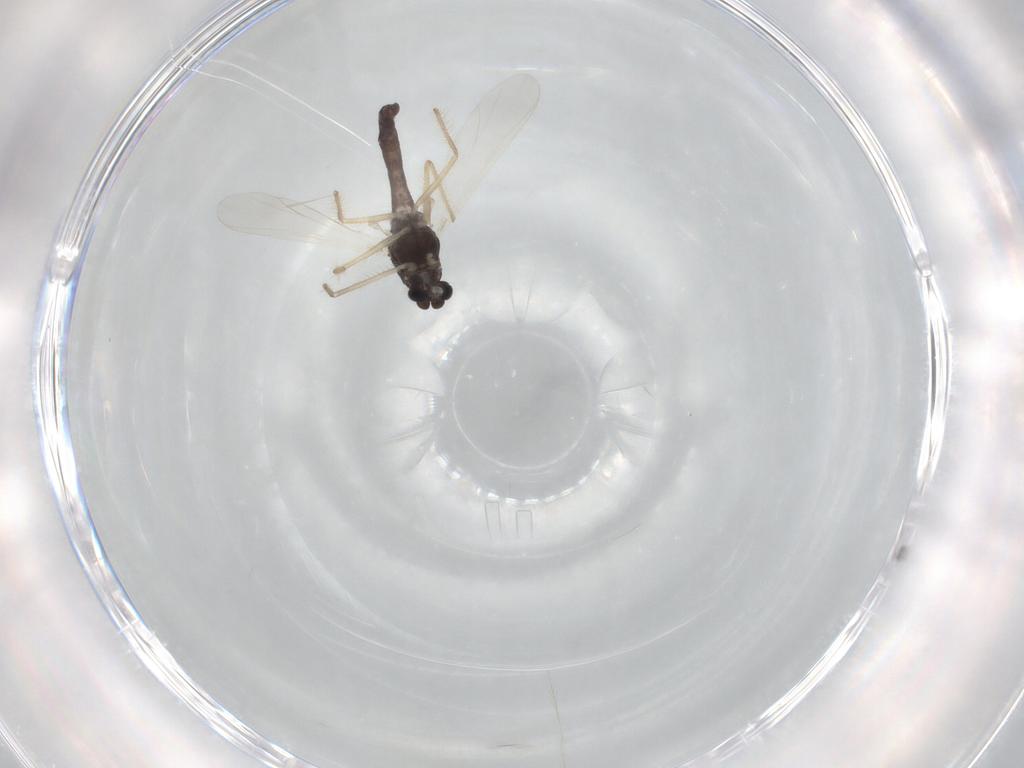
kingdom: Animalia
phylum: Arthropoda
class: Insecta
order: Diptera
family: Chironomidae
